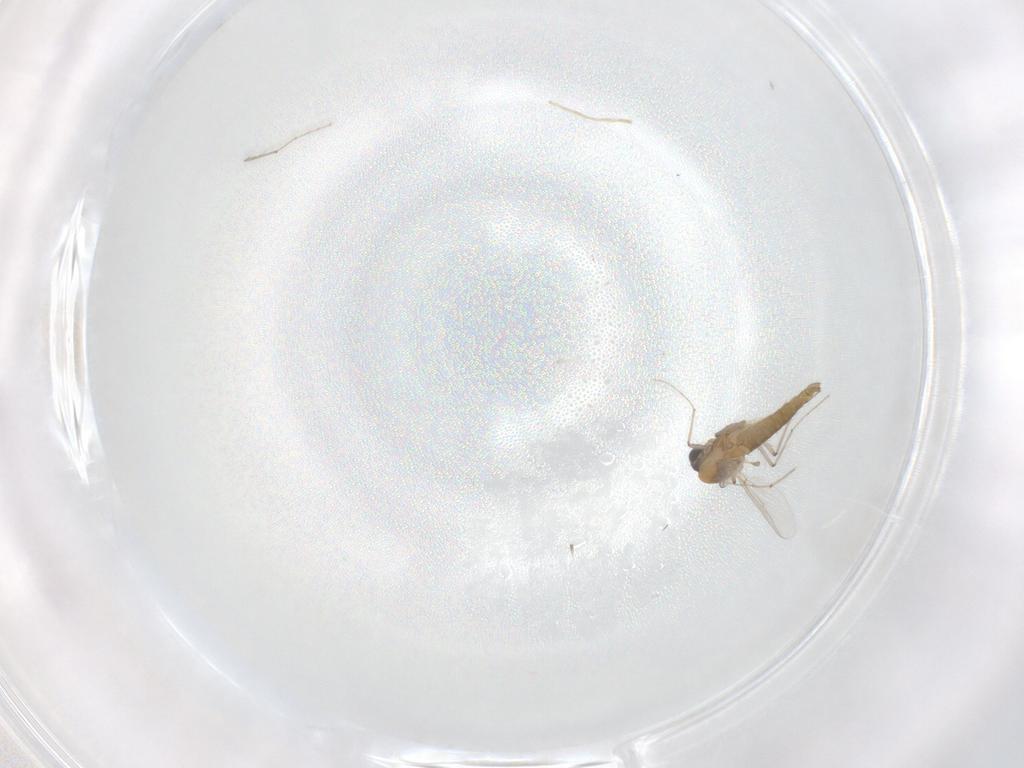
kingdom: Animalia
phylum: Arthropoda
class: Insecta
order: Diptera
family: Chironomidae
